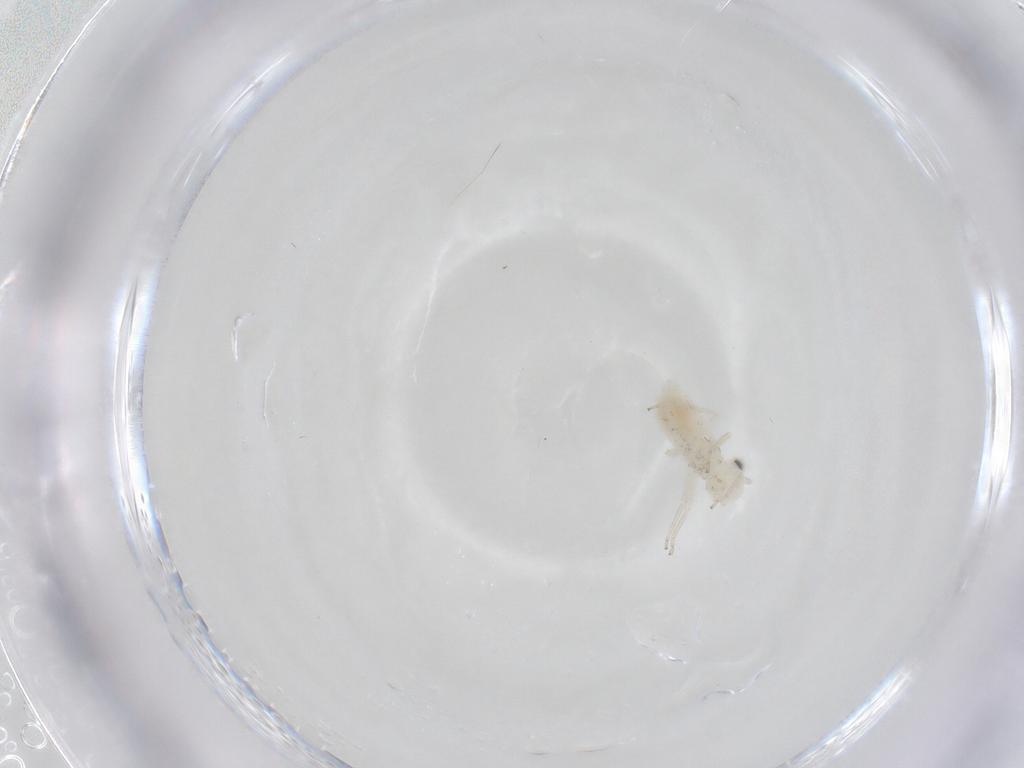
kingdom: Animalia
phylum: Arthropoda
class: Insecta
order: Psocodea
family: Caeciliusidae
